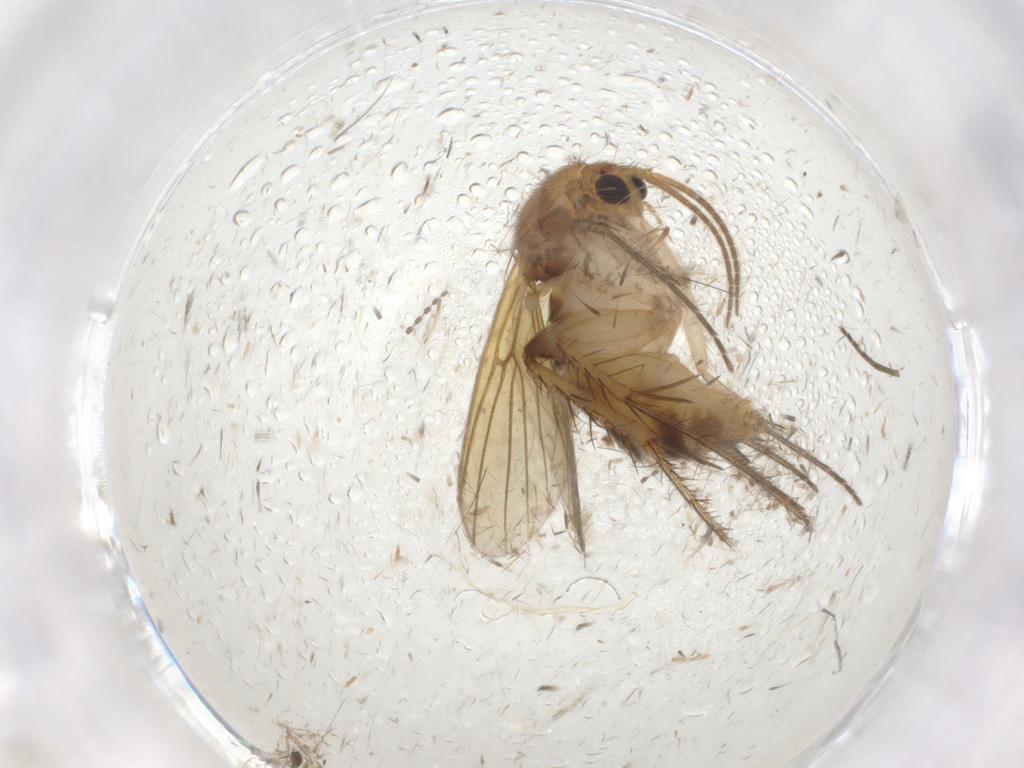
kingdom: Animalia
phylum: Arthropoda
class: Insecta
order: Diptera
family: Mycetophilidae
